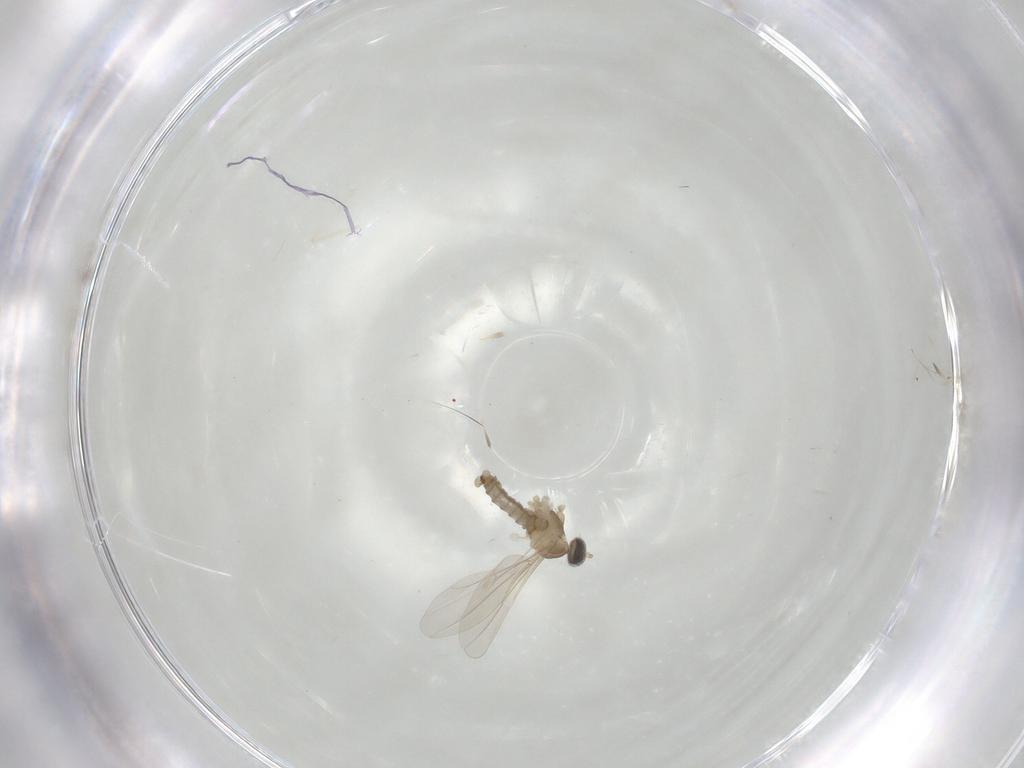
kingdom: Animalia
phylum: Arthropoda
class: Insecta
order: Diptera
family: Cecidomyiidae
